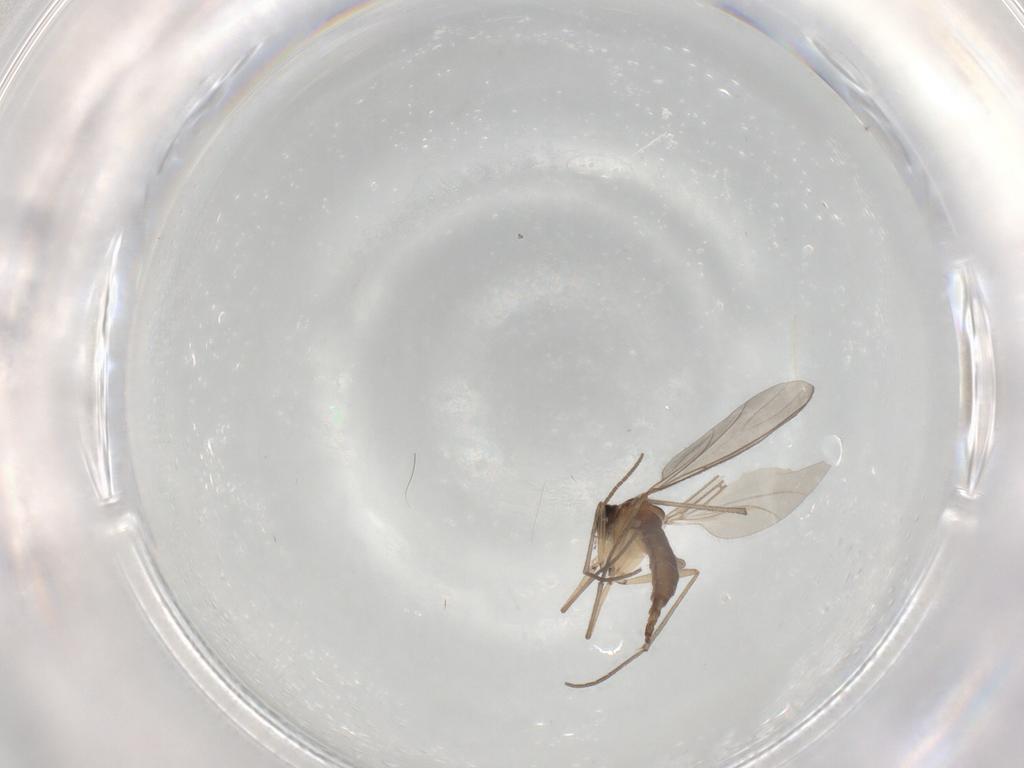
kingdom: Animalia
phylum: Arthropoda
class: Insecta
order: Diptera
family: Sciaridae
